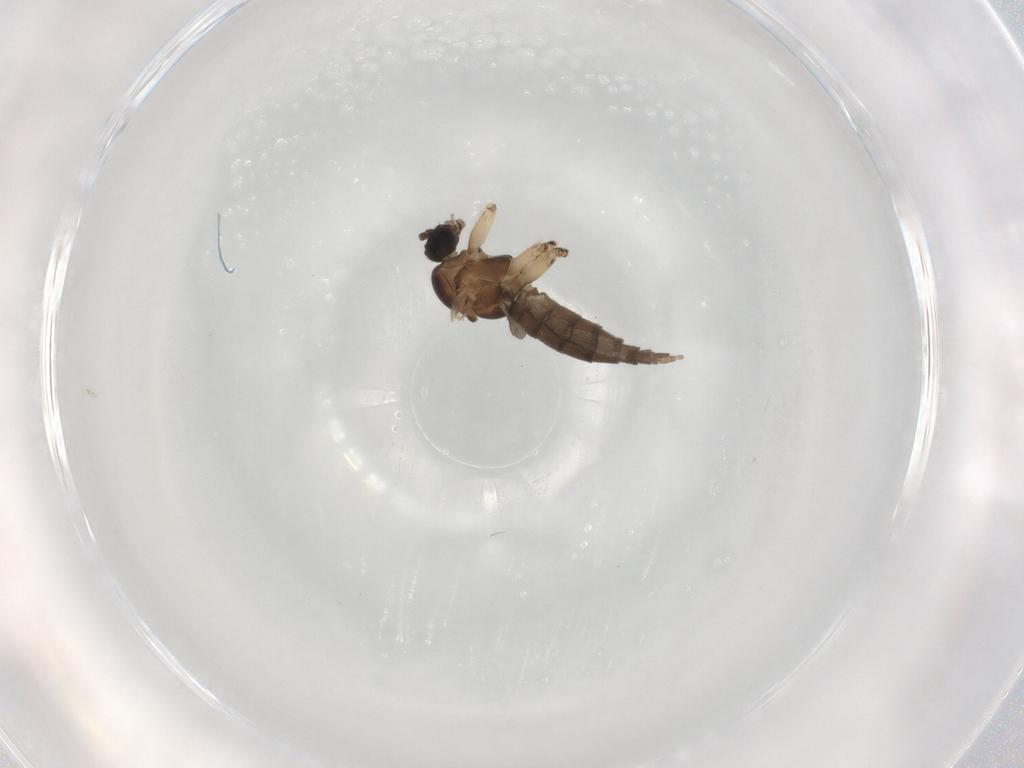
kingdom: Animalia
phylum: Arthropoda
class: Insecta
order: Diptera
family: Sciaridae
